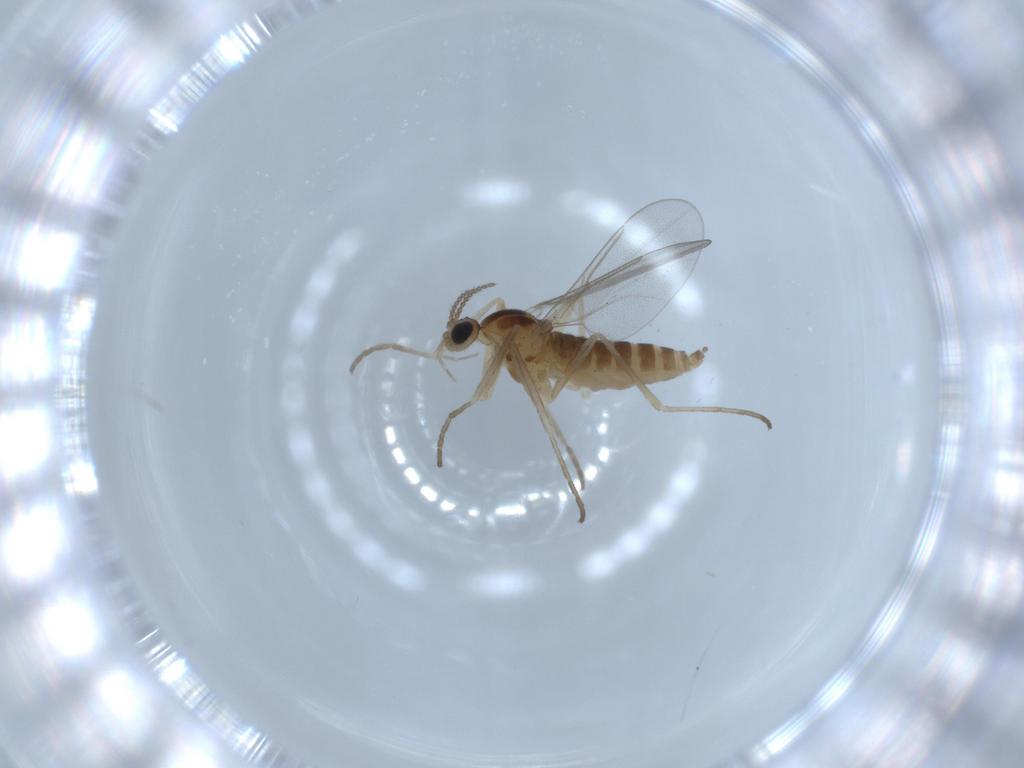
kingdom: Animalia
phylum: Arthropoda
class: Insecta
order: Diptera
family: Cecidomyiidae
